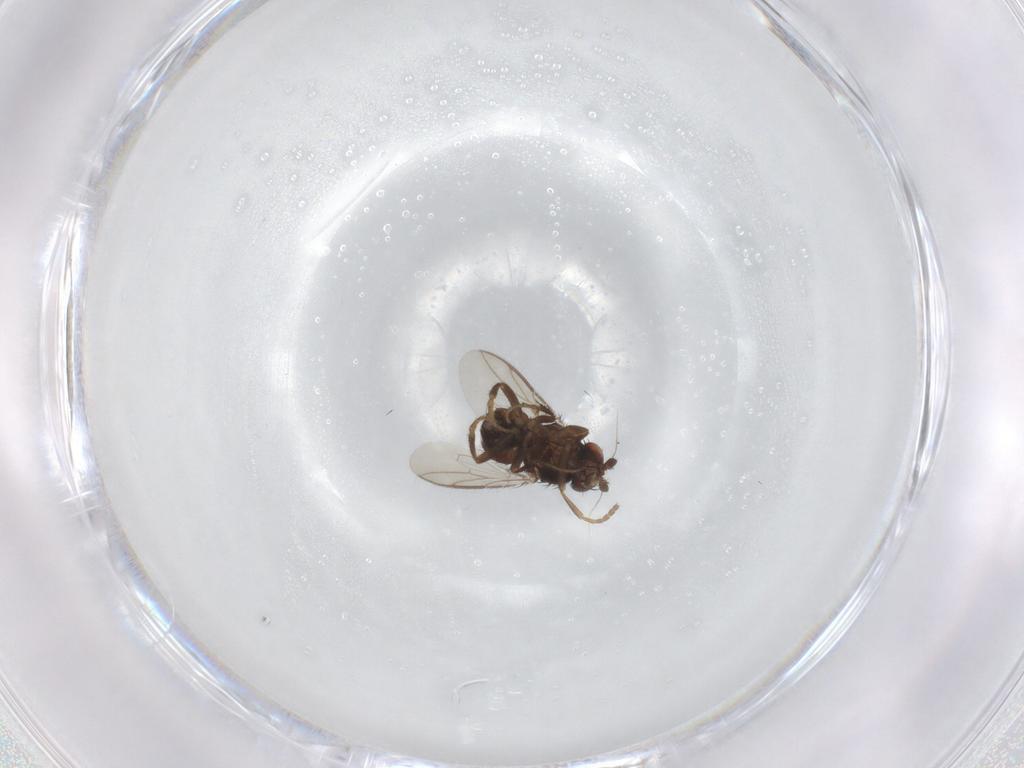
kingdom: Animalia
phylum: Arthropoda
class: Insecta
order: Diptera
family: Sphaeroceridae
